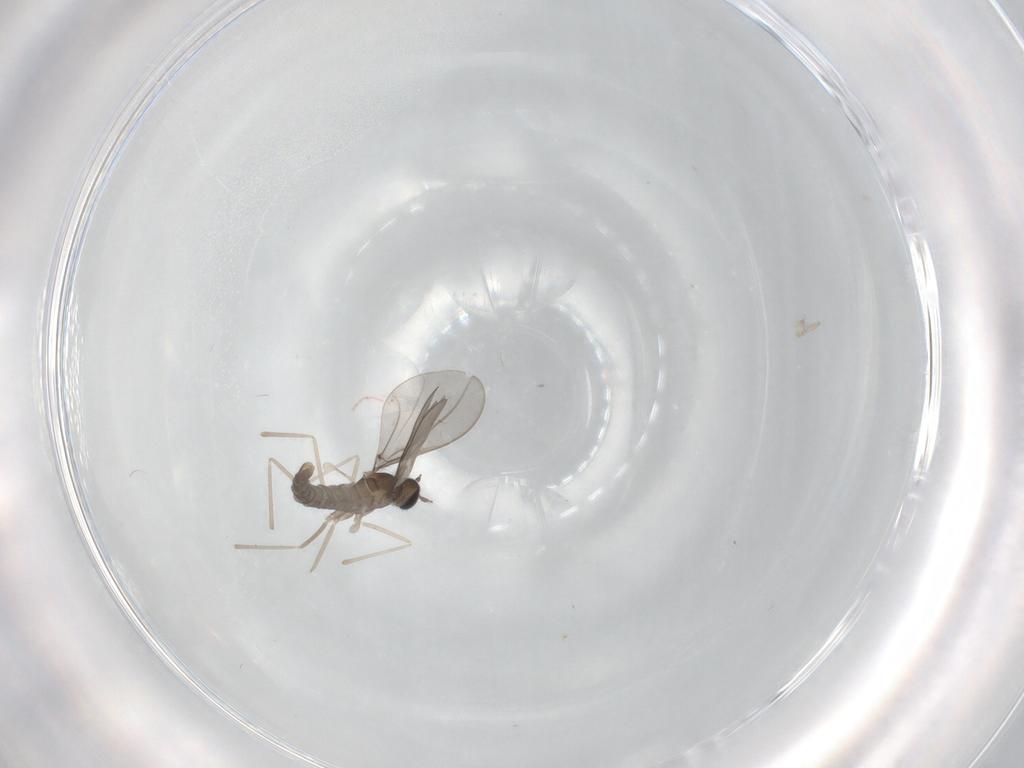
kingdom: Animalia
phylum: Arthropoda
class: Insecta
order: Diptera
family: Cecidomyiidae
